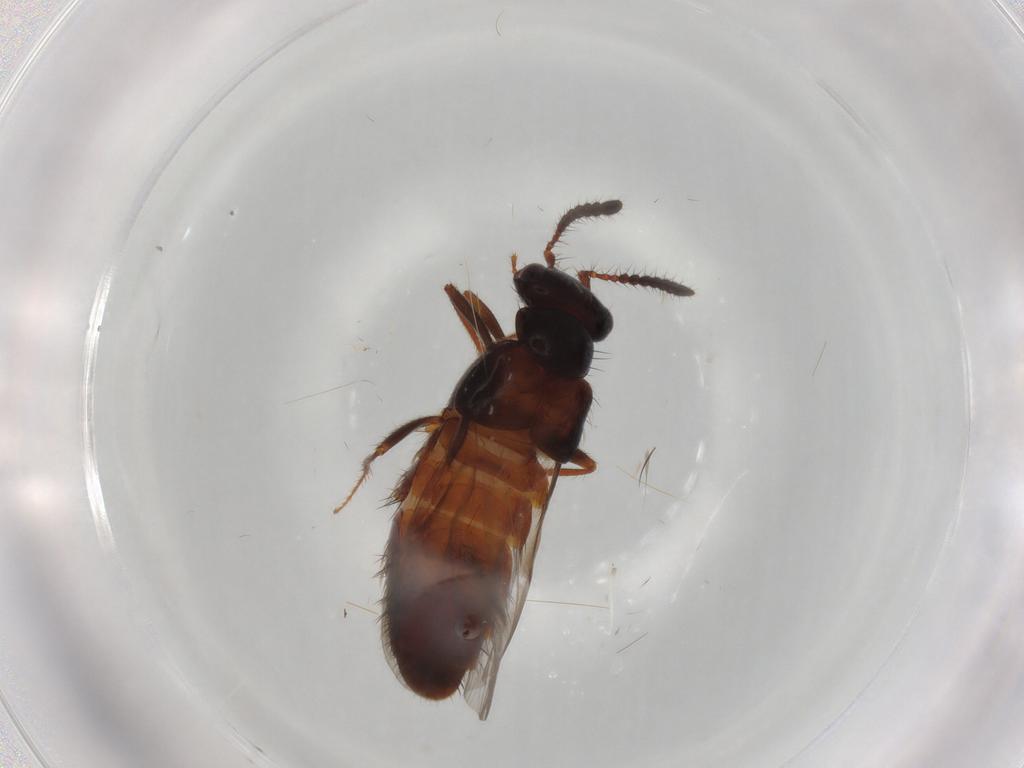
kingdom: Animalia
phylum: Arthropoda
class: Insecta
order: Coleoptera
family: Staphylinidae
